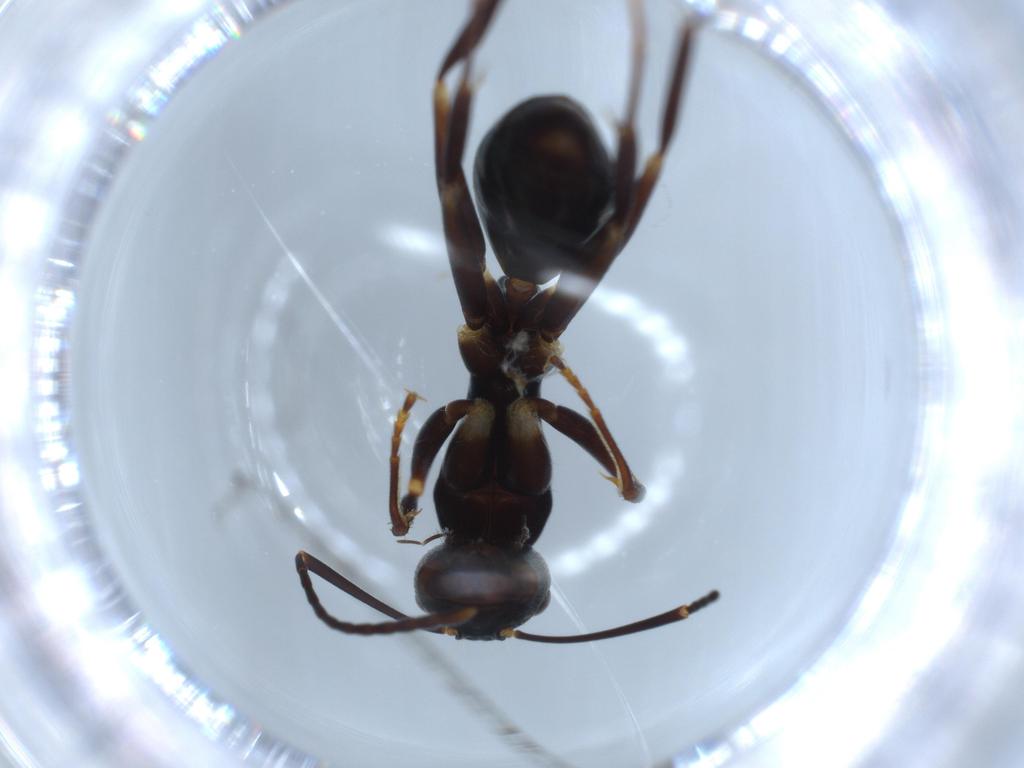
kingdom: Animalia
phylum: Arthropoda
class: Insecta
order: Hymenoptera
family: Formicidae
